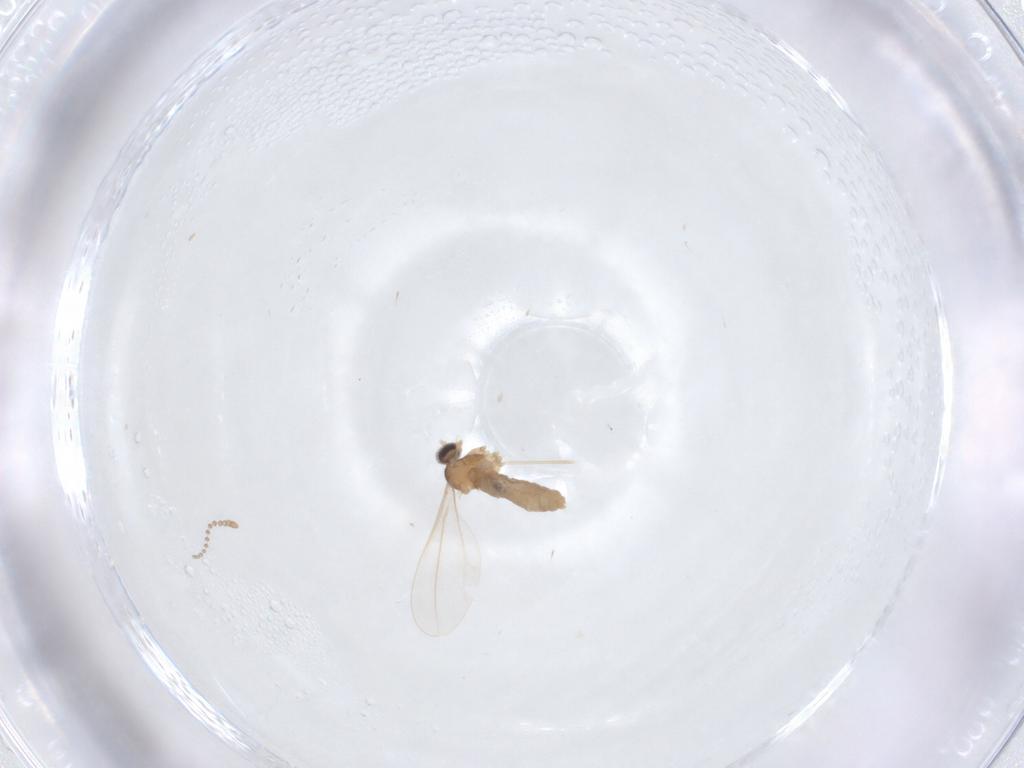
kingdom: Animalia
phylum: Arthropoda
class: Insecta
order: Diptera
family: Cecidomyiidae
